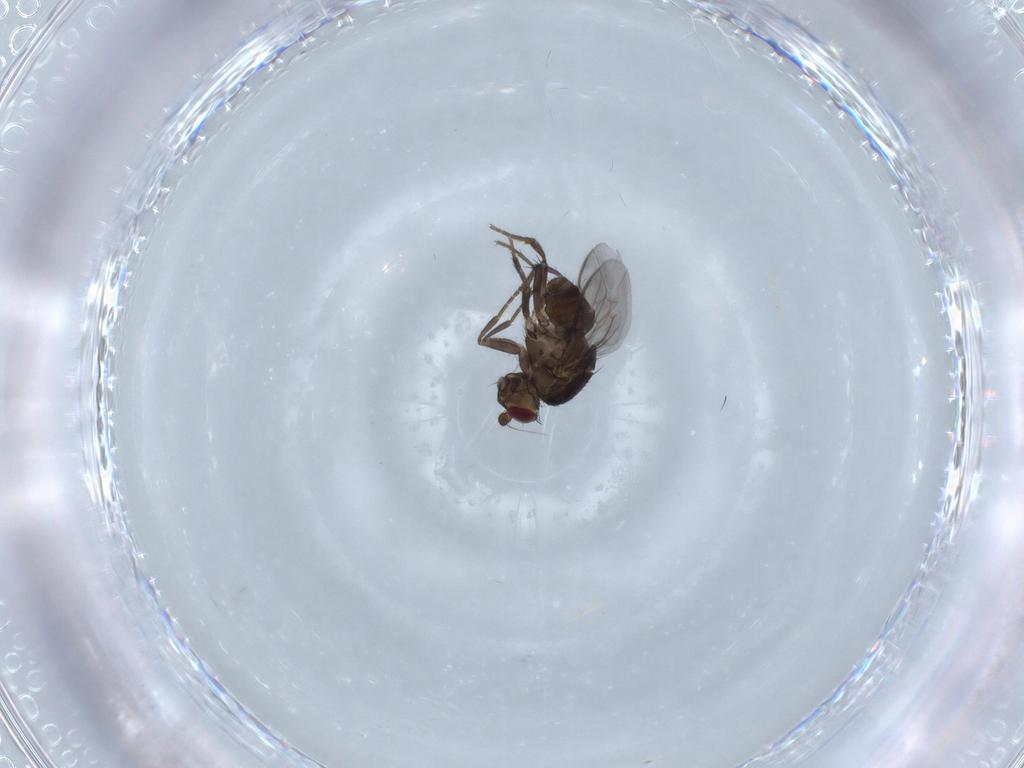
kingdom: Animalia
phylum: Arthropoda
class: Insecta
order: Diptera
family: Sphaeroceridae
